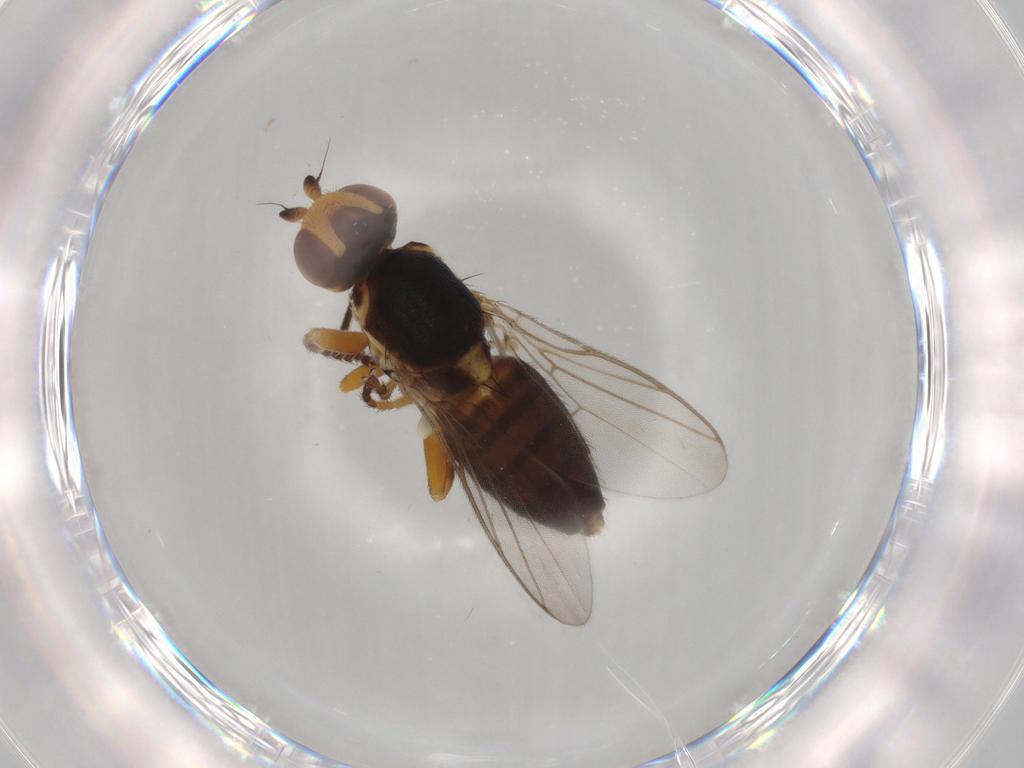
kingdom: Animalia
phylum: Arthropoda
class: Insecta
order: Diptera
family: Chloropidae
